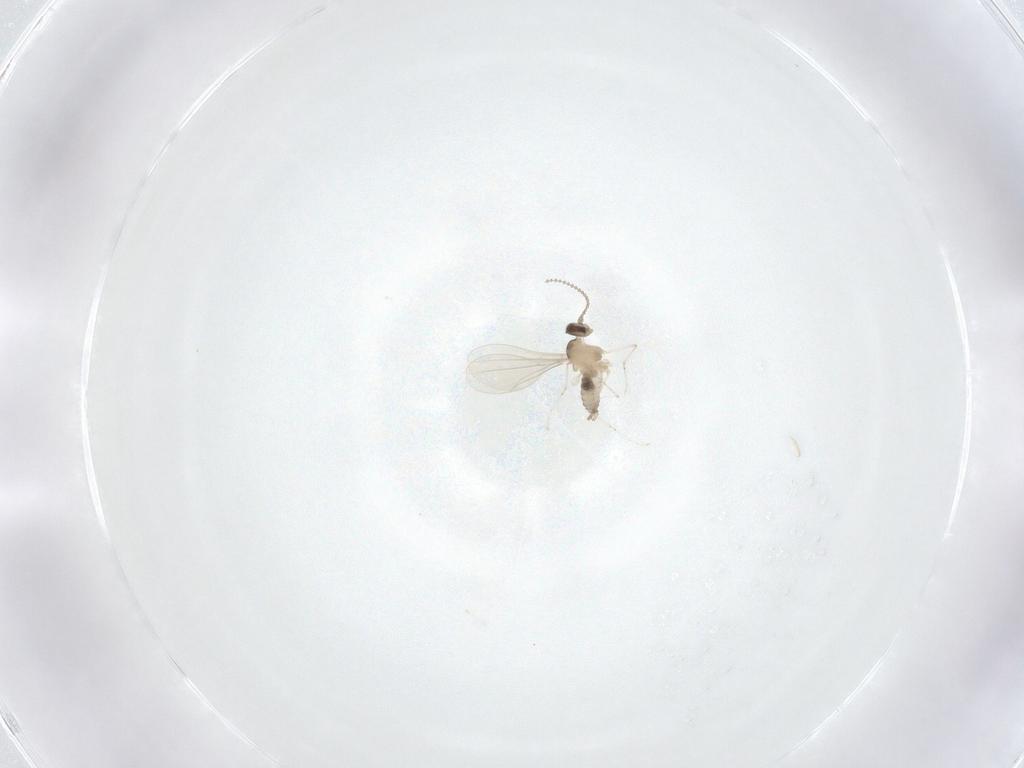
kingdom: Animalia
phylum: Arthropoda
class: Insecta
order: Diptera
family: Cecidomyiidae
